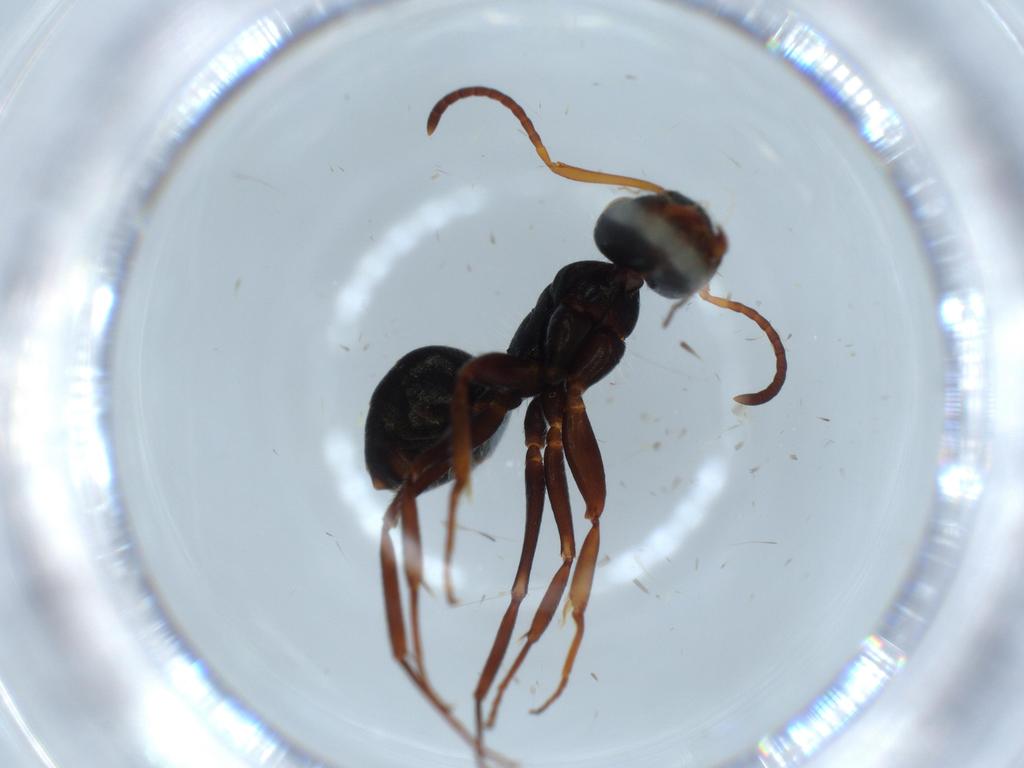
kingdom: Animalia
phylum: Arthropoda
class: Insecta
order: Hymenoptera
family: Formicidae
